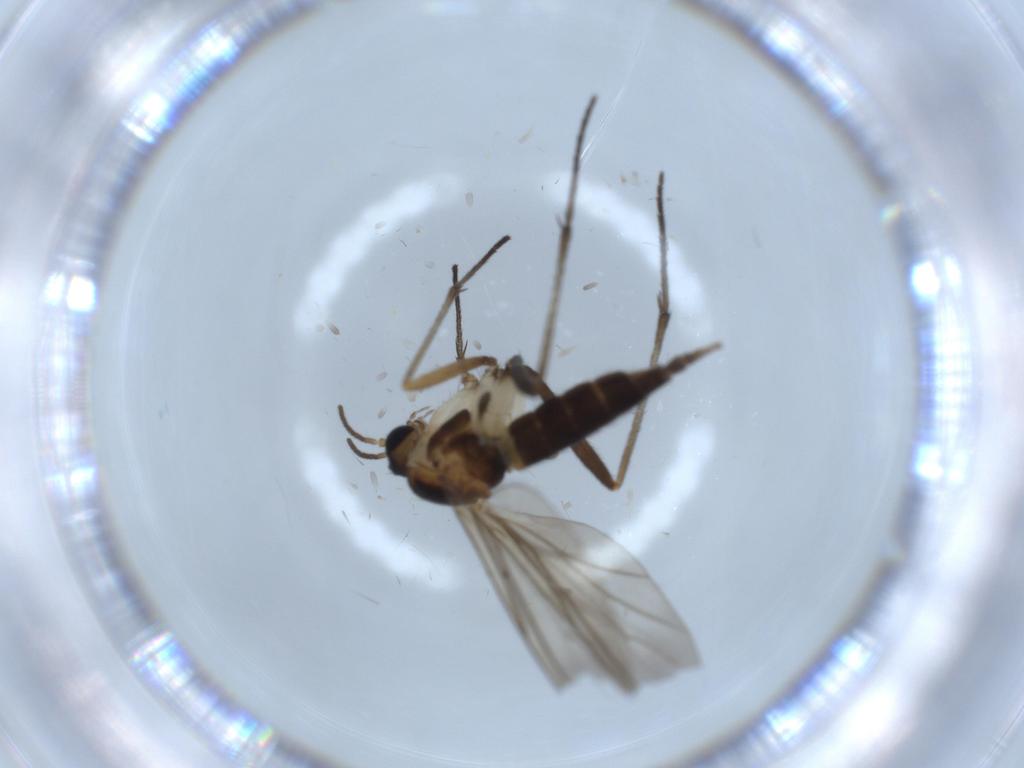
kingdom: Animalia
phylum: Arthropoda
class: Insecta
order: Diptera
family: Sciaridae
